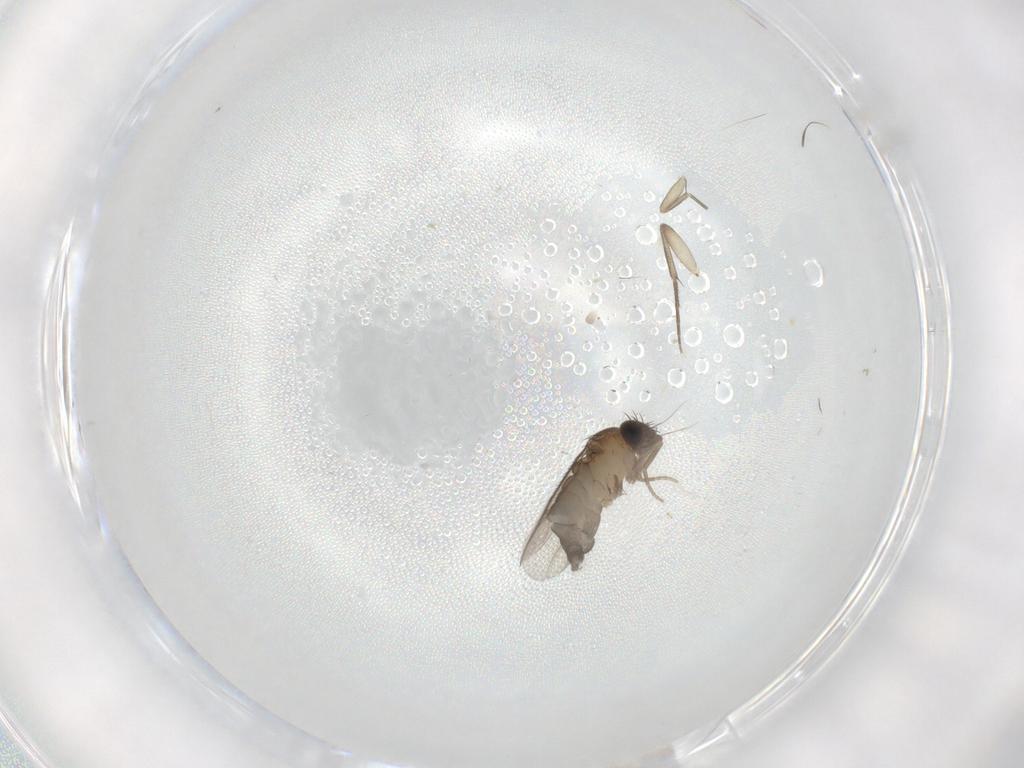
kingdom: Animalia
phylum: Arthropoda
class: Insecta
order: Diptera
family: Phoridae
